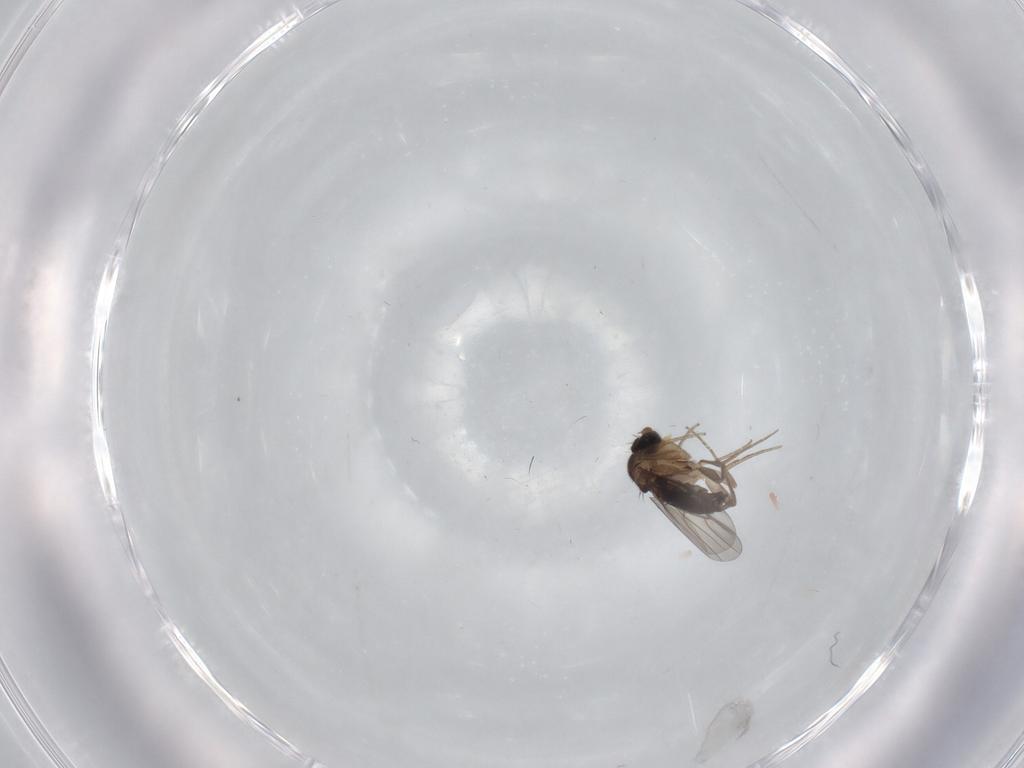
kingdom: Animalia
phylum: Arthropoda
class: Insecta
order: Diptera
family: Phoridae
